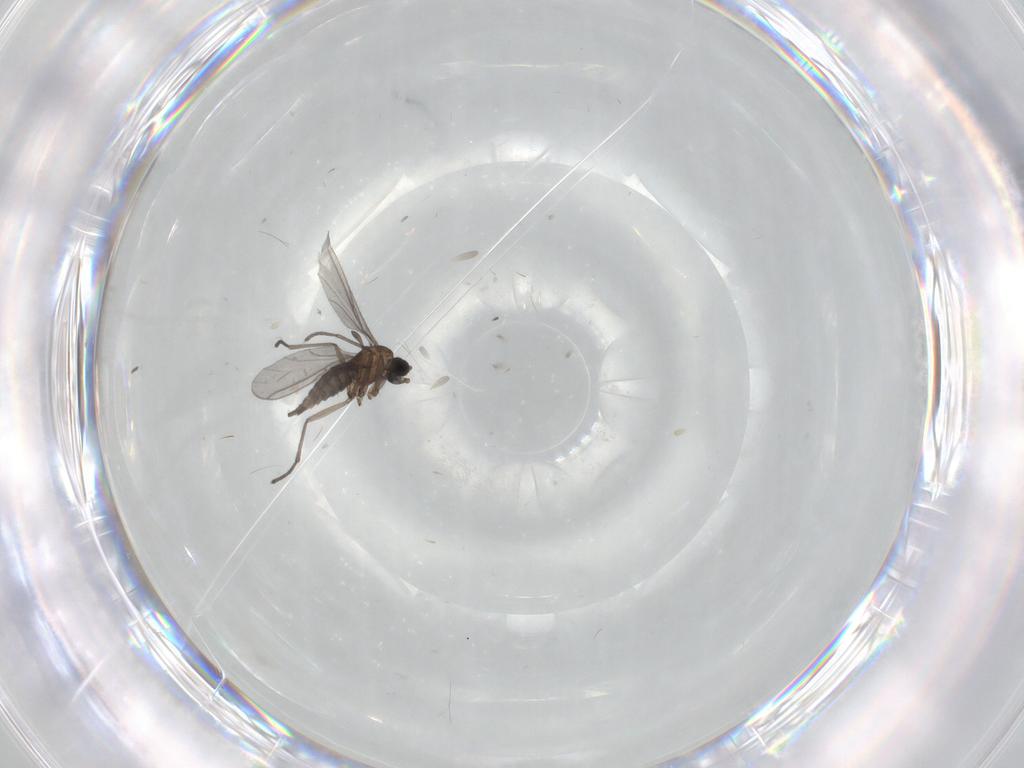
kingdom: Animalia
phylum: Arthropoda
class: Insecta
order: Diptera
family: Cecidomyiidae
